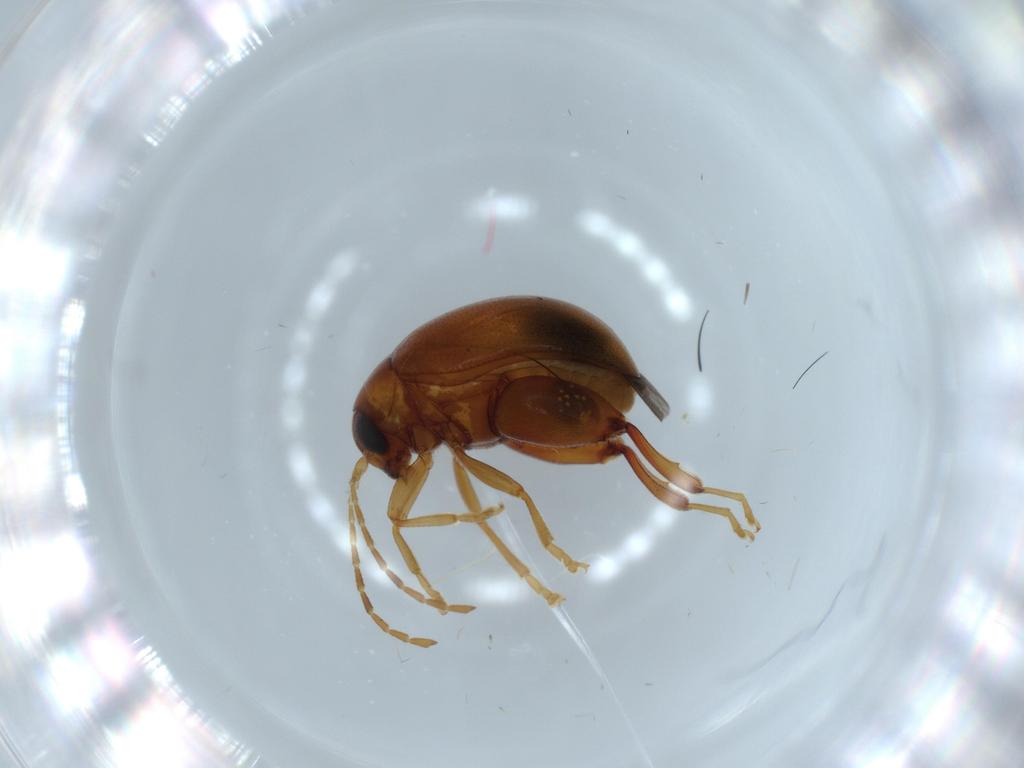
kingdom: Animalia
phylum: Arthropoda
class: Insecta
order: Coleoptera
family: Chrysomelidae
